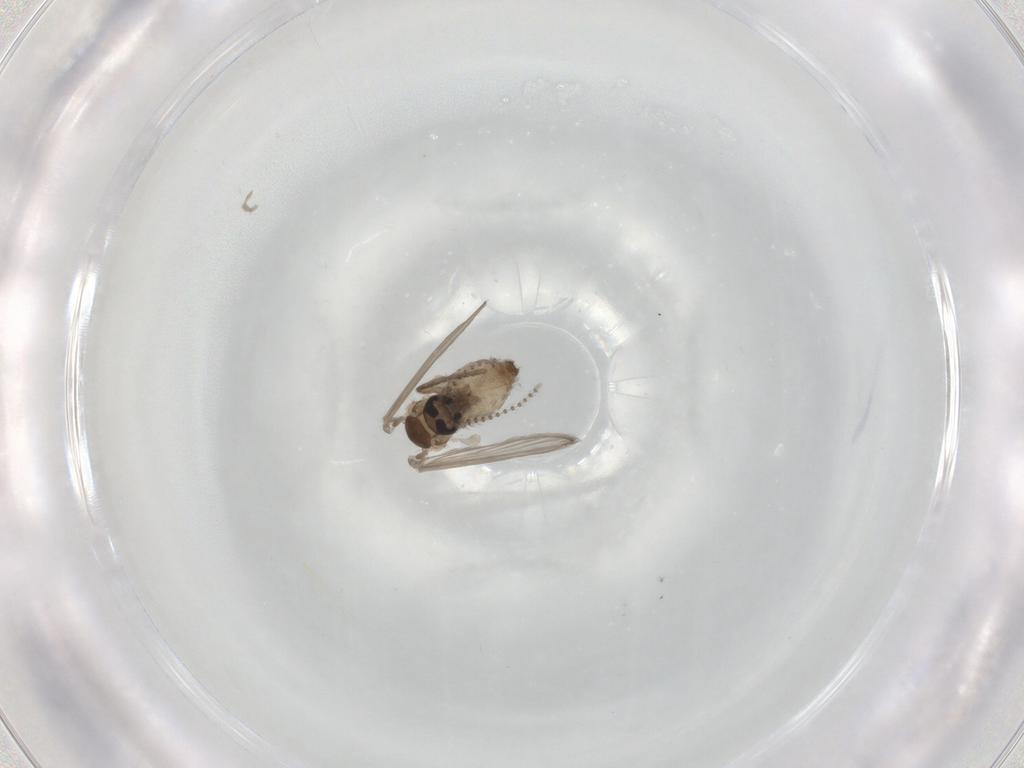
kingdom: Animalia
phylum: Arthropoda
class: Insecta
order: Diptera
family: Psychodidae
